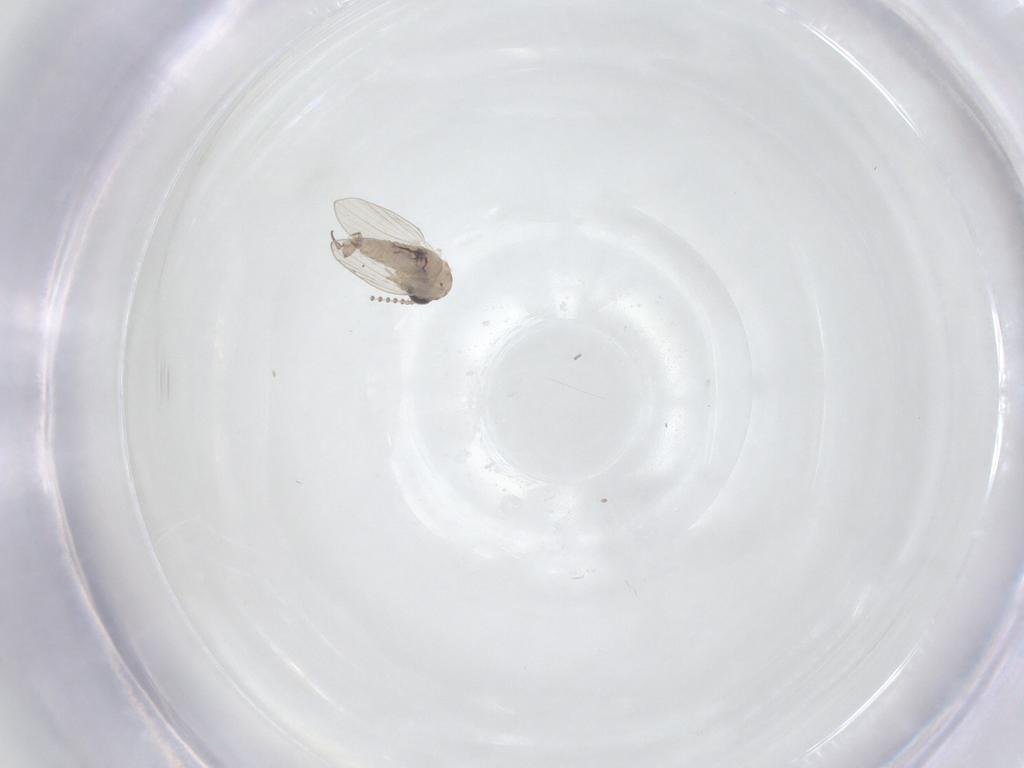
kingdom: Animalia
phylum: Arthropoda
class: Insecta
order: Diptera
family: Psychodidae
